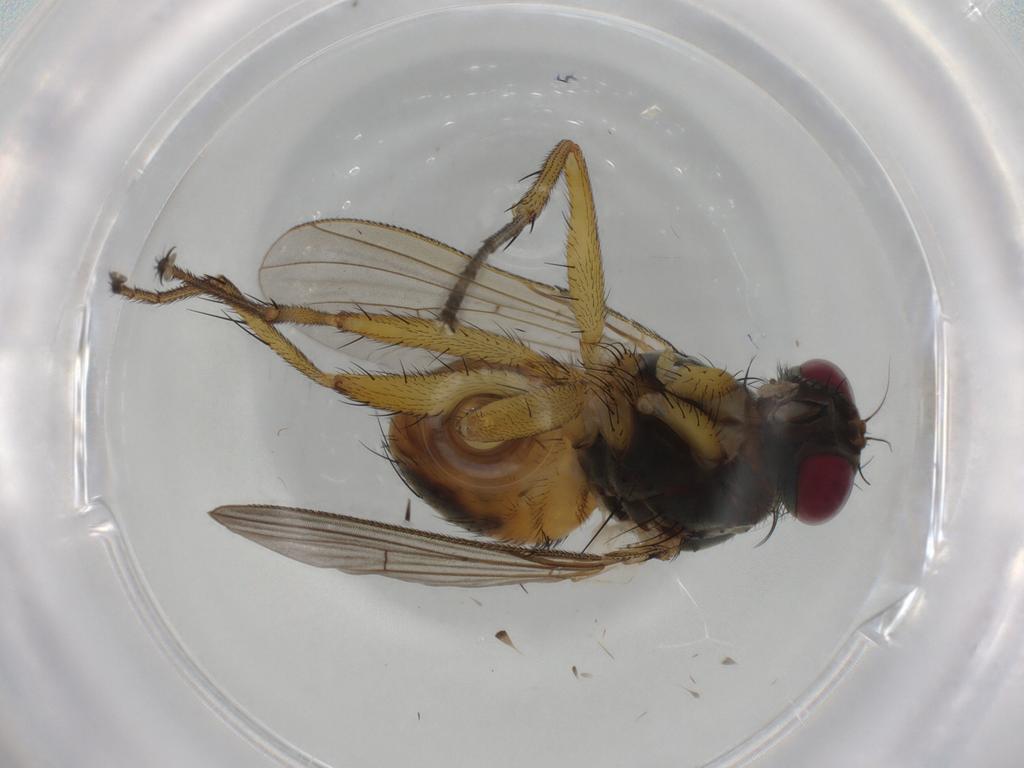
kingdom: Animalia
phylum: Arthropoda
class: Insecta
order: Diptera
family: Muscidae
